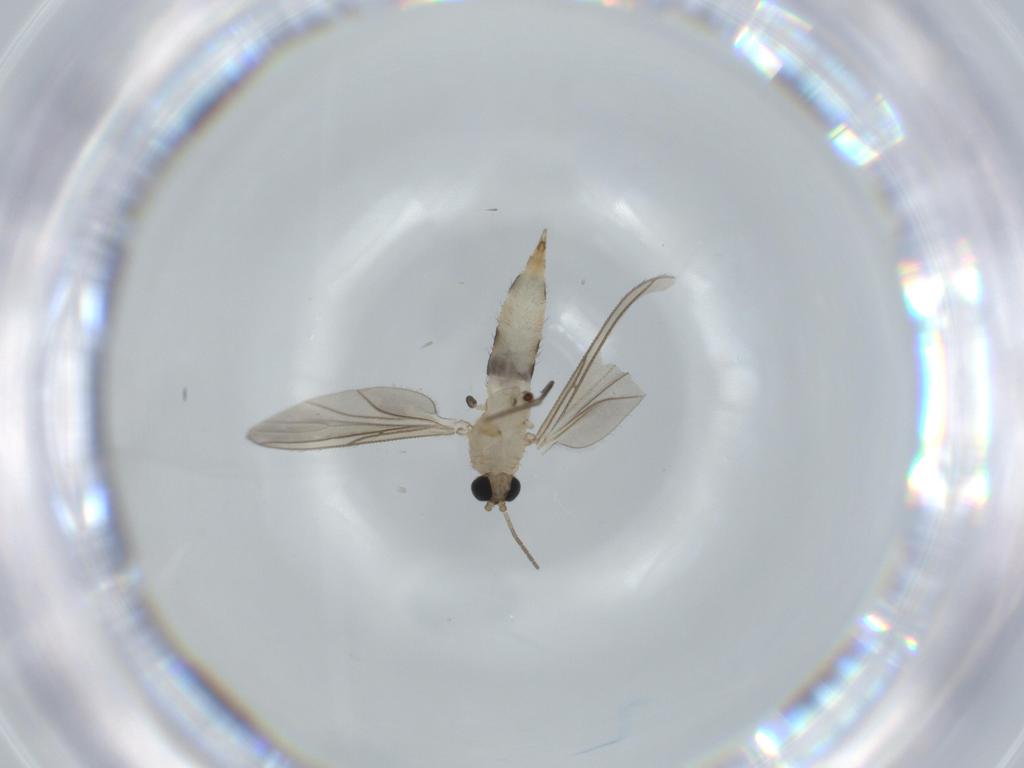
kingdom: Animalia
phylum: Arthropoda
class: Insecta
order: Diptera
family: Sciaridae
